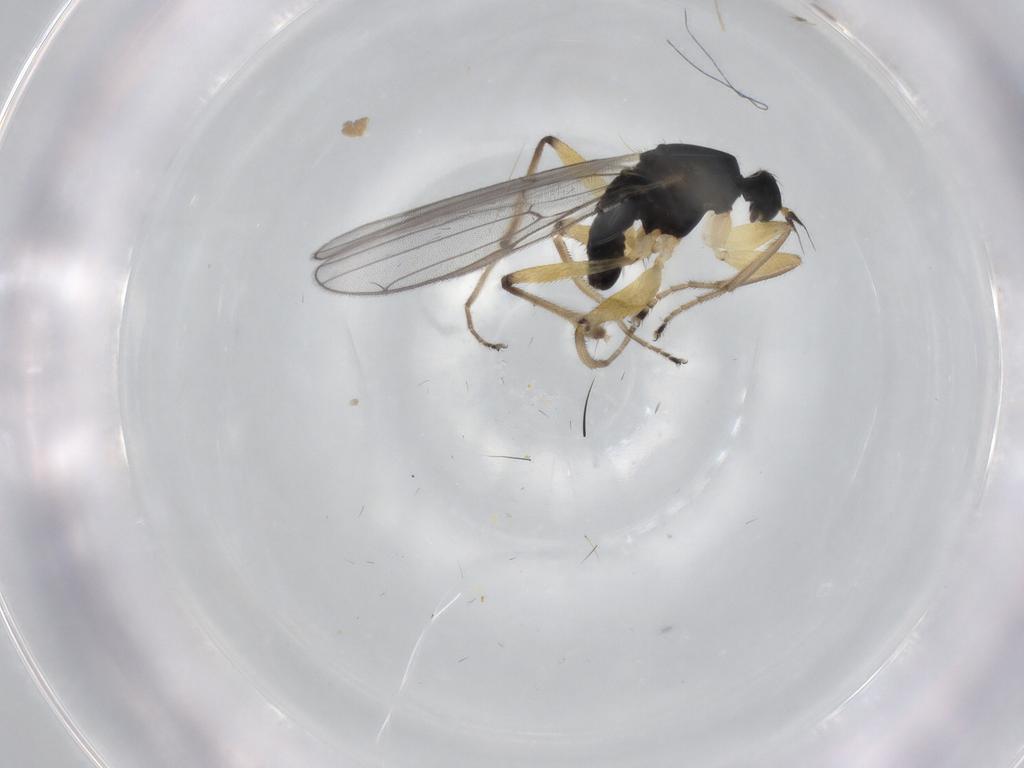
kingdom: Animalia
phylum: Arthropoda
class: Insecta
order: Diptera
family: Hybotidae
